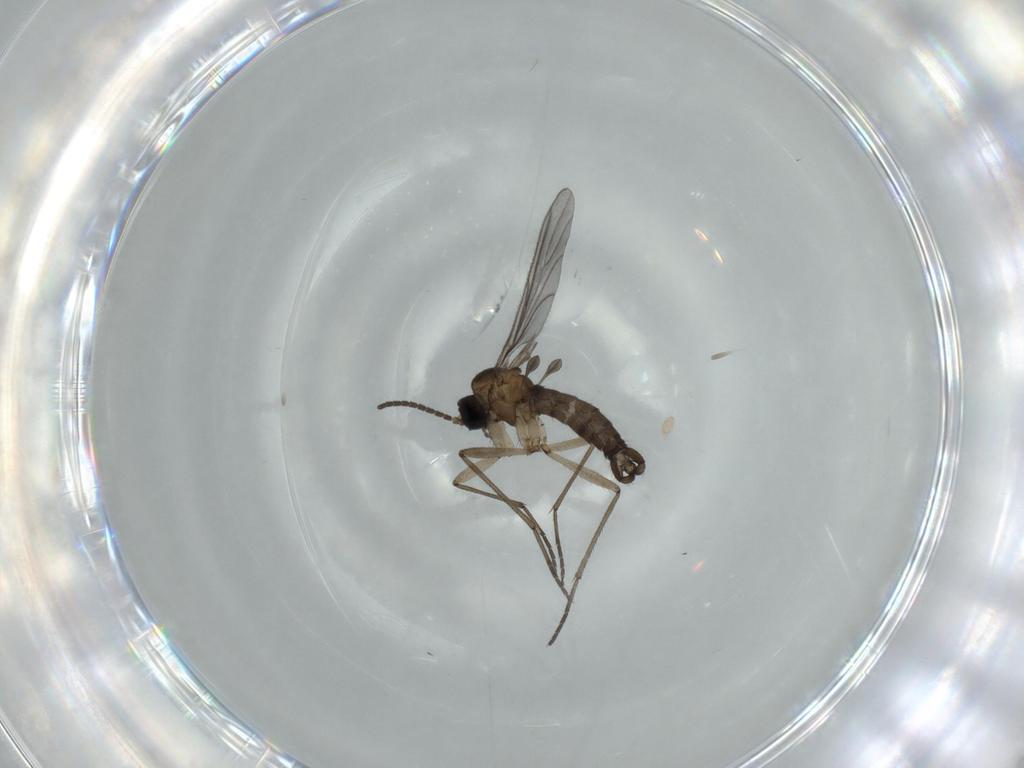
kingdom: Animalia
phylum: Arthropoda
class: Insecta
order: Diptera
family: Sciaridae
